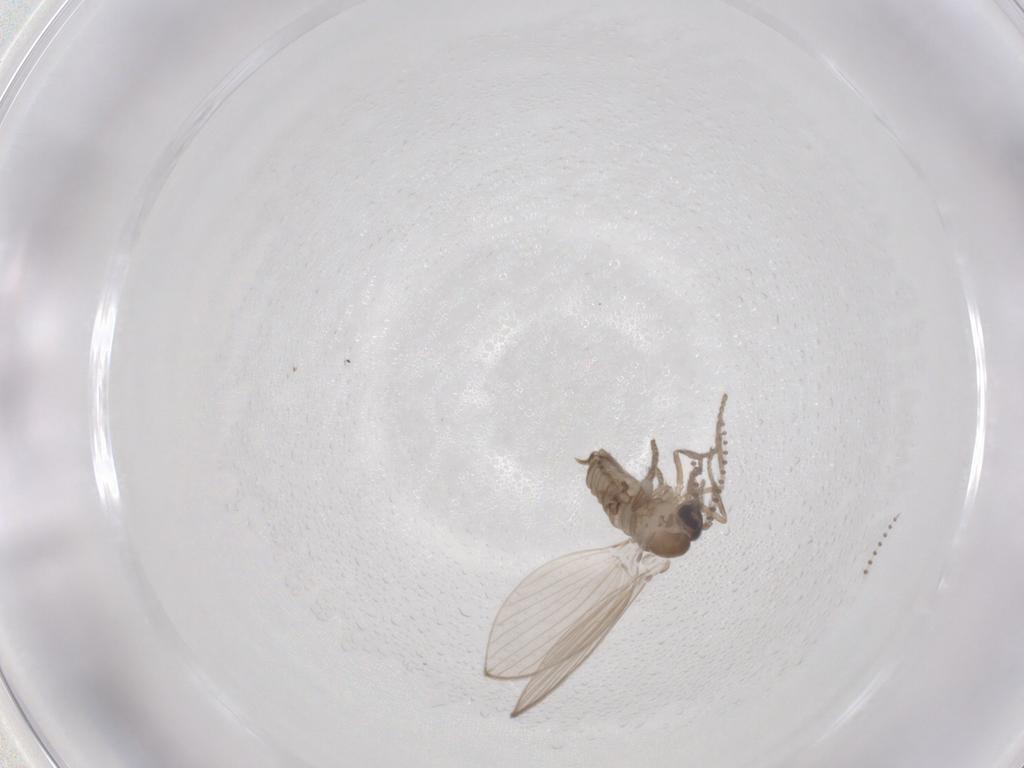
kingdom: Animalia
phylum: Arthropoda
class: Insecta
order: Diptera
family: Psychodidae
